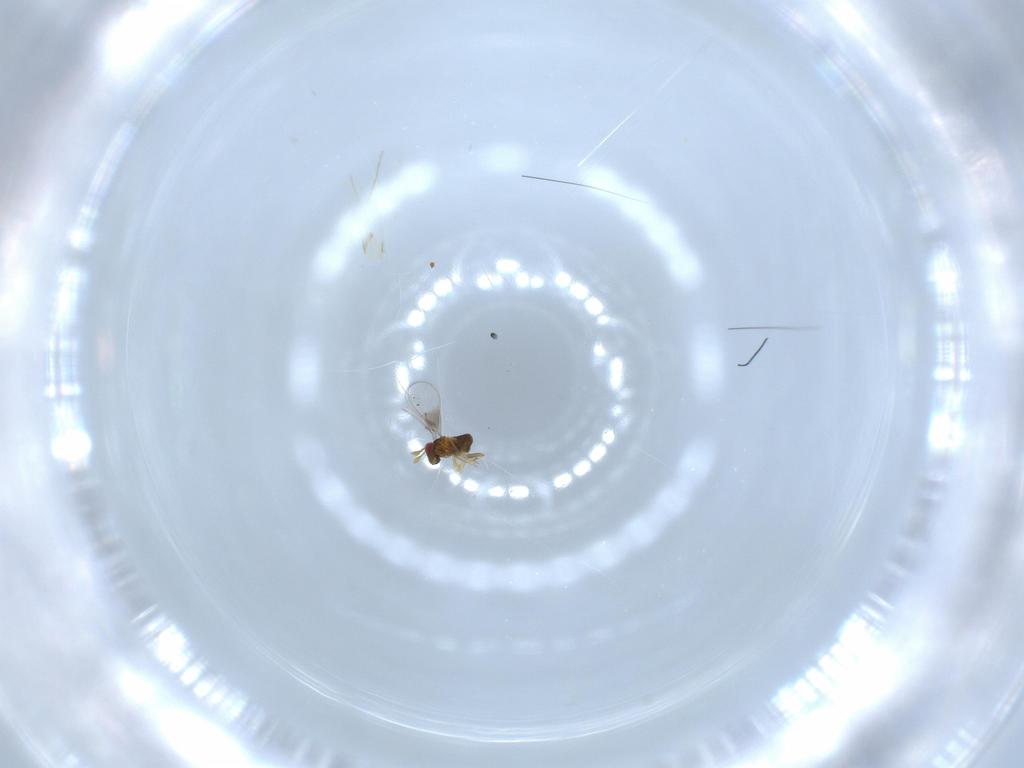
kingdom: Animalia
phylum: Arthropoda
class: Insecta
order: Hymenoptera
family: Trichogrammatidae
